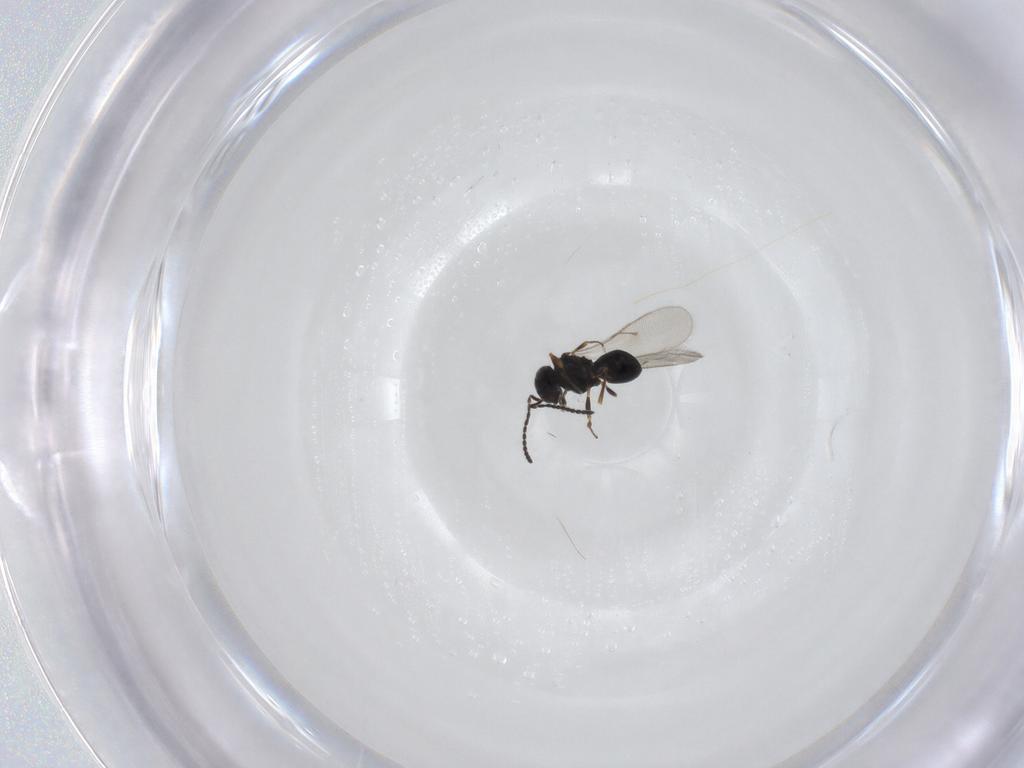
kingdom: Animalia
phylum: Arthropoda
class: Insecta
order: Hymenoptera
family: Scelionidae
